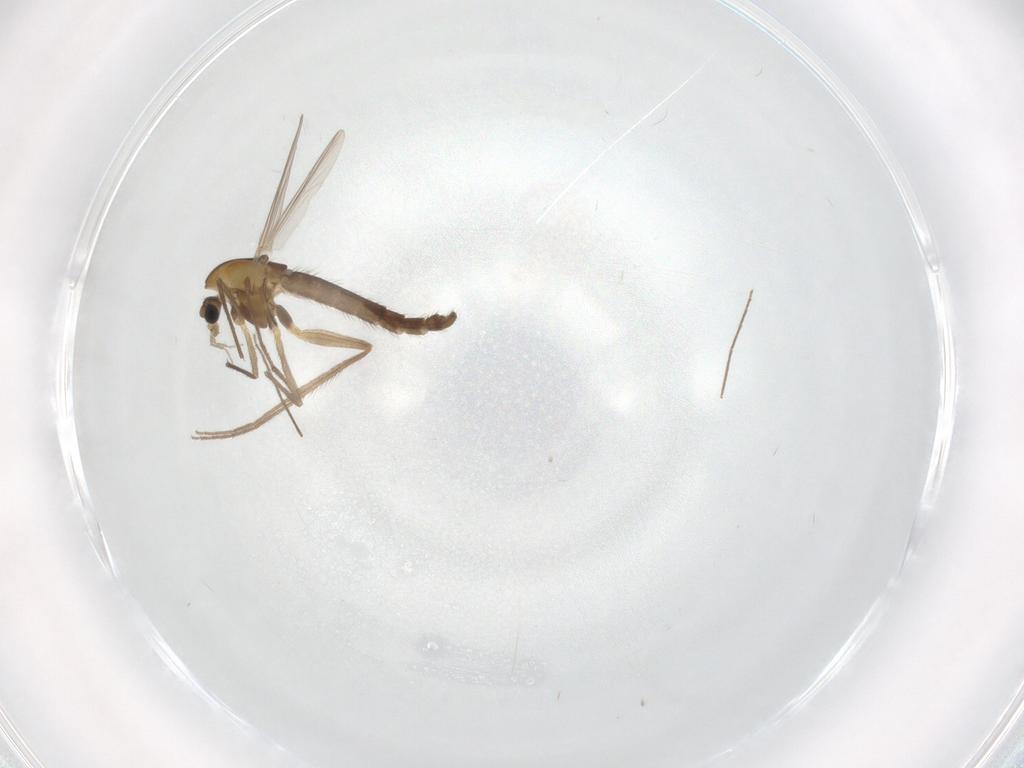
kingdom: Animalia
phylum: Arthropoda
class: Insecta
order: Diptera
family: Chironomidae
